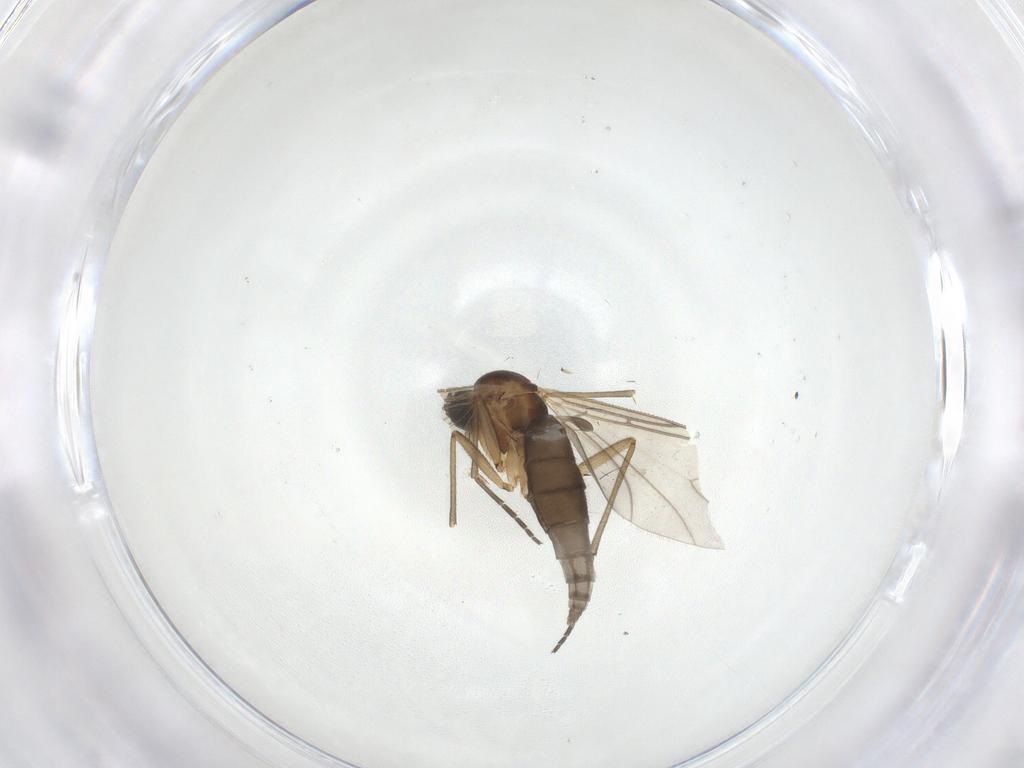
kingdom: Animalia
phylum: Arthropoda
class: Insecta
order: Diptera
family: Sciaridae
